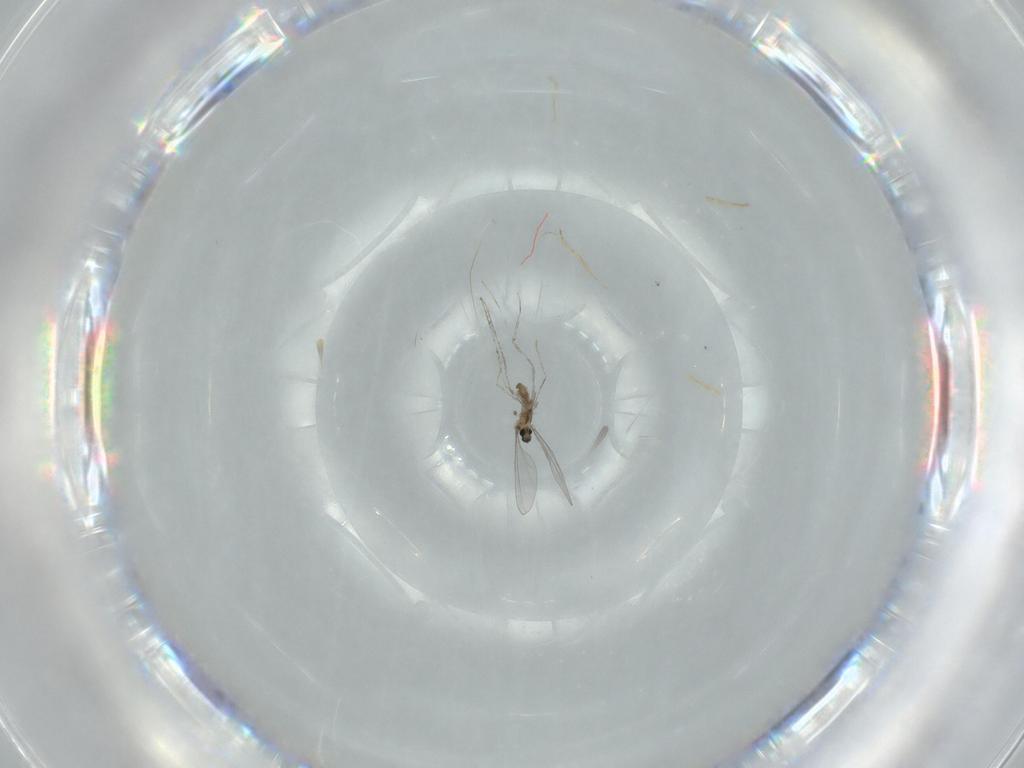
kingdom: Animalia
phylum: Arthropoda
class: Insecta
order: Diptera
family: Cecidomyiidae
